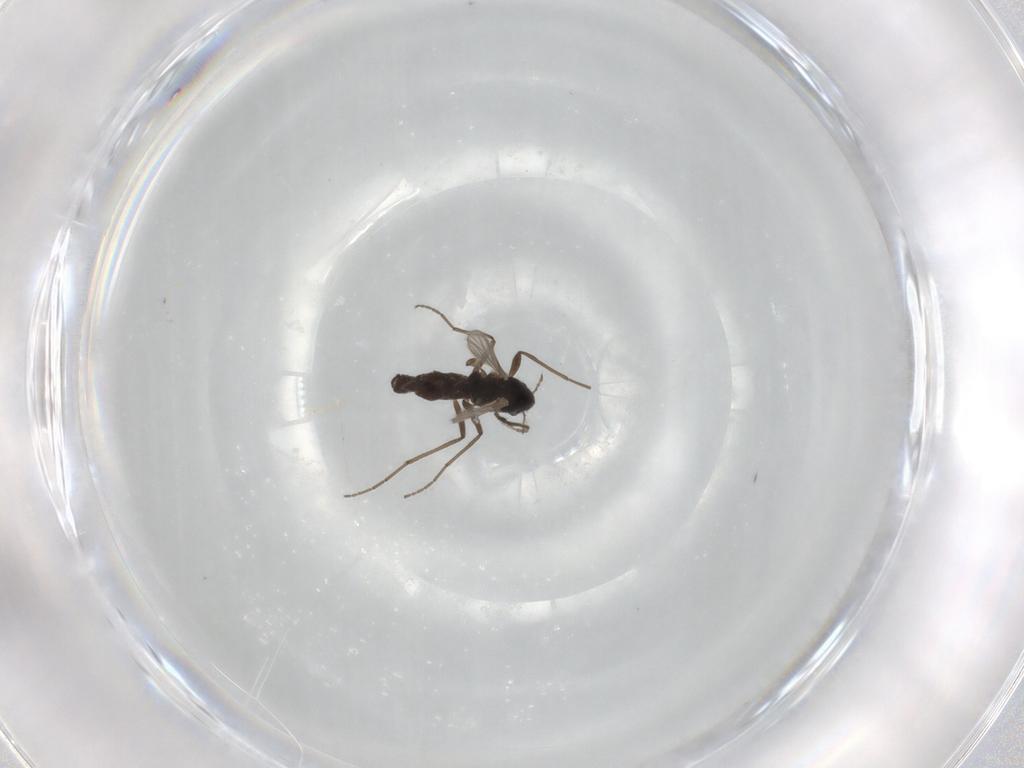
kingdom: Animalia
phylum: Arthropoda
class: Insecta
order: Diptera
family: Chironomidae
